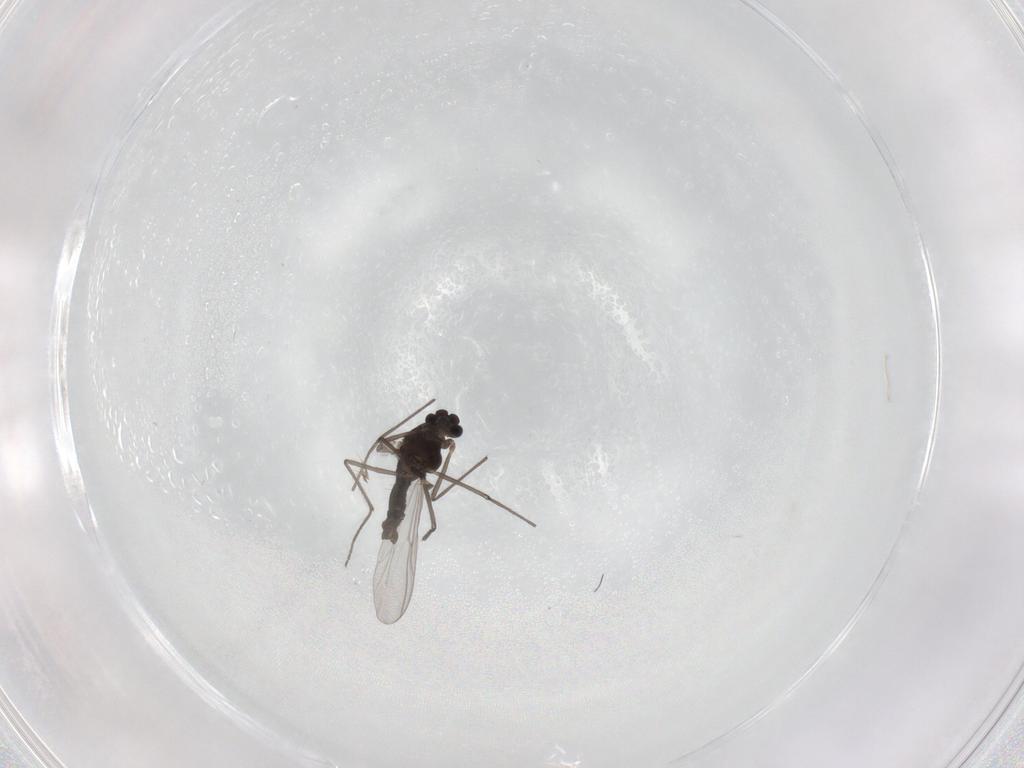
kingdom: Animalia
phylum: Arthropoda
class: Insecta
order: Diptera
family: Chironomidae
